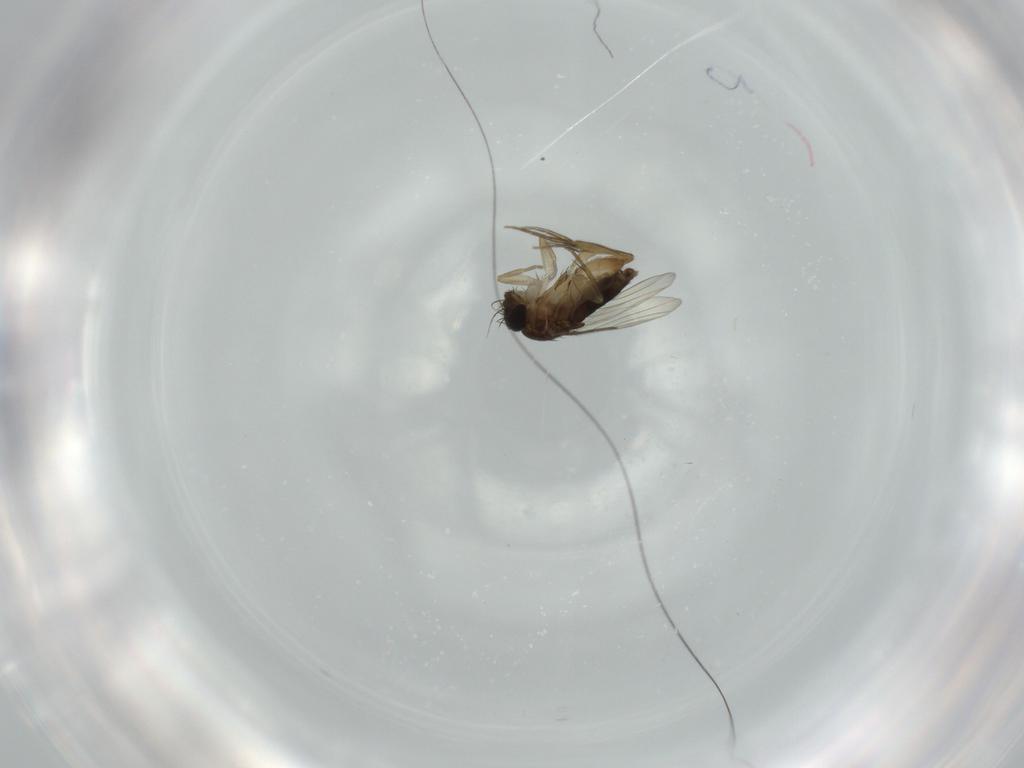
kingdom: Animalia
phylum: Arthropoda
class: Insecta
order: Diptera
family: Phoridae
